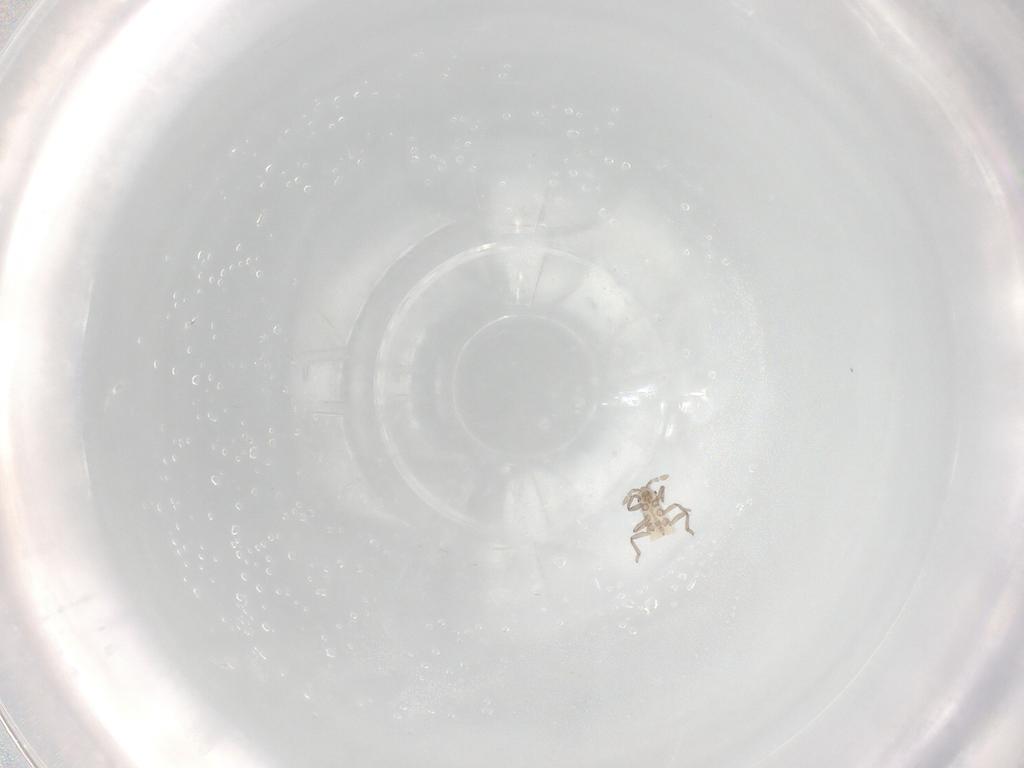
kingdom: Animalia
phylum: Arthropoda
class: Insecta
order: Hemiptera
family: Aphididae
